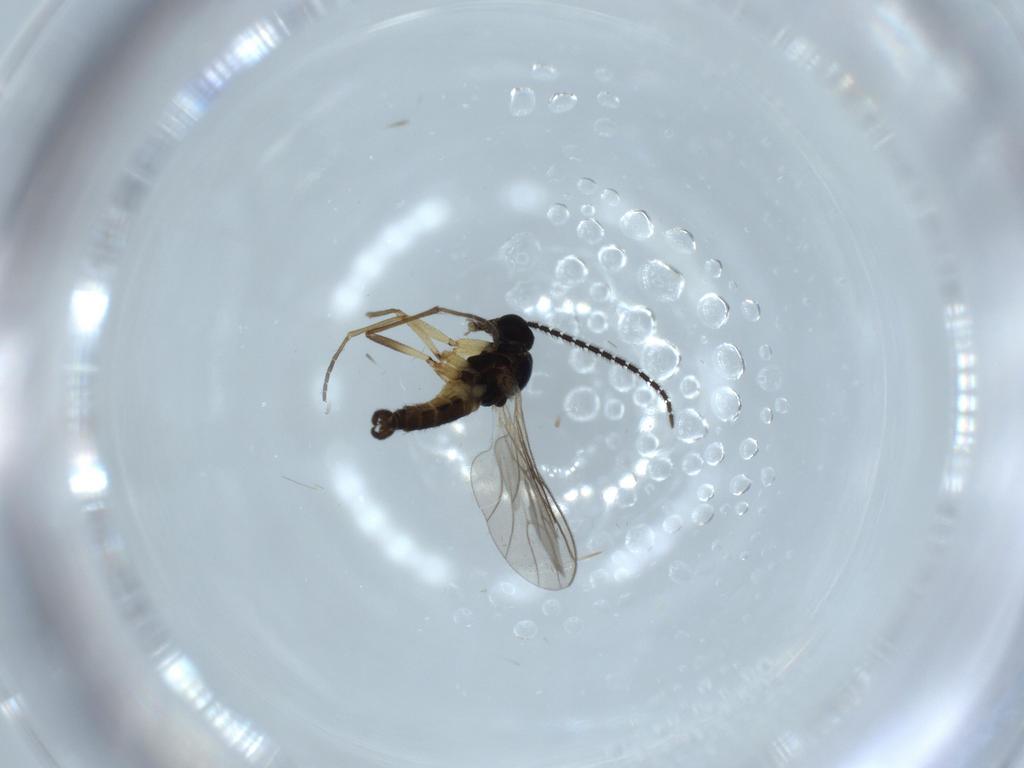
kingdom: Animalia
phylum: Arthropoda
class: Insecta
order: Diptera
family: Sciaridae
